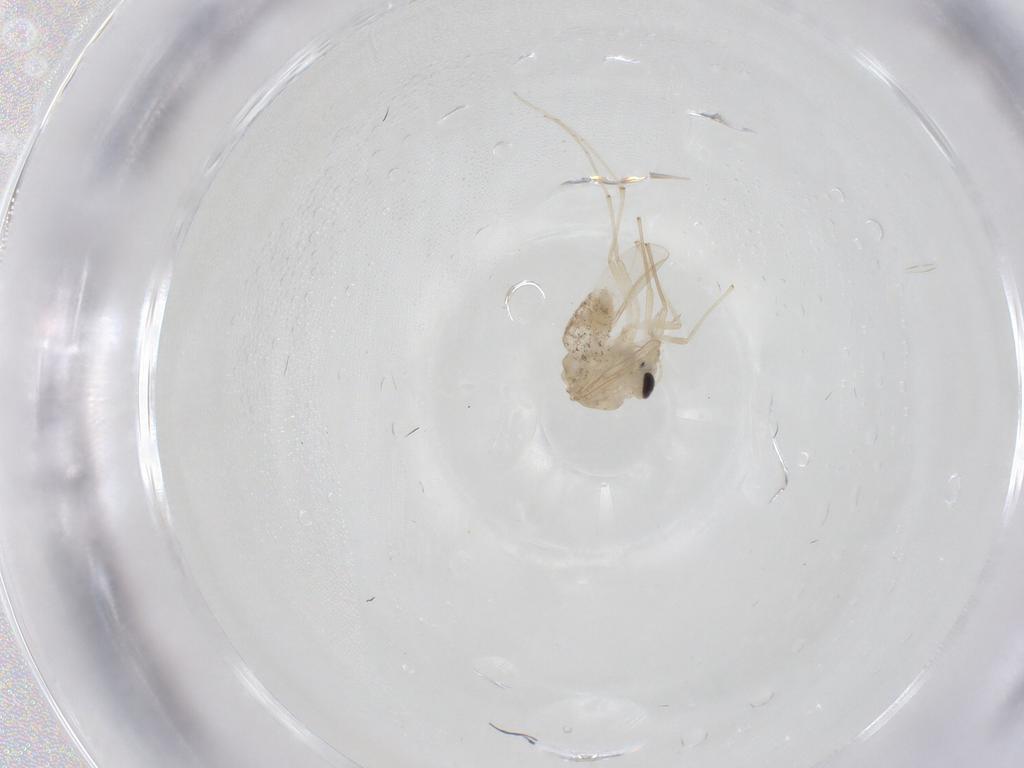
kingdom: Animalia
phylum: Arthropoda
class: Insecta
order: Diptera
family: Chironomidae
